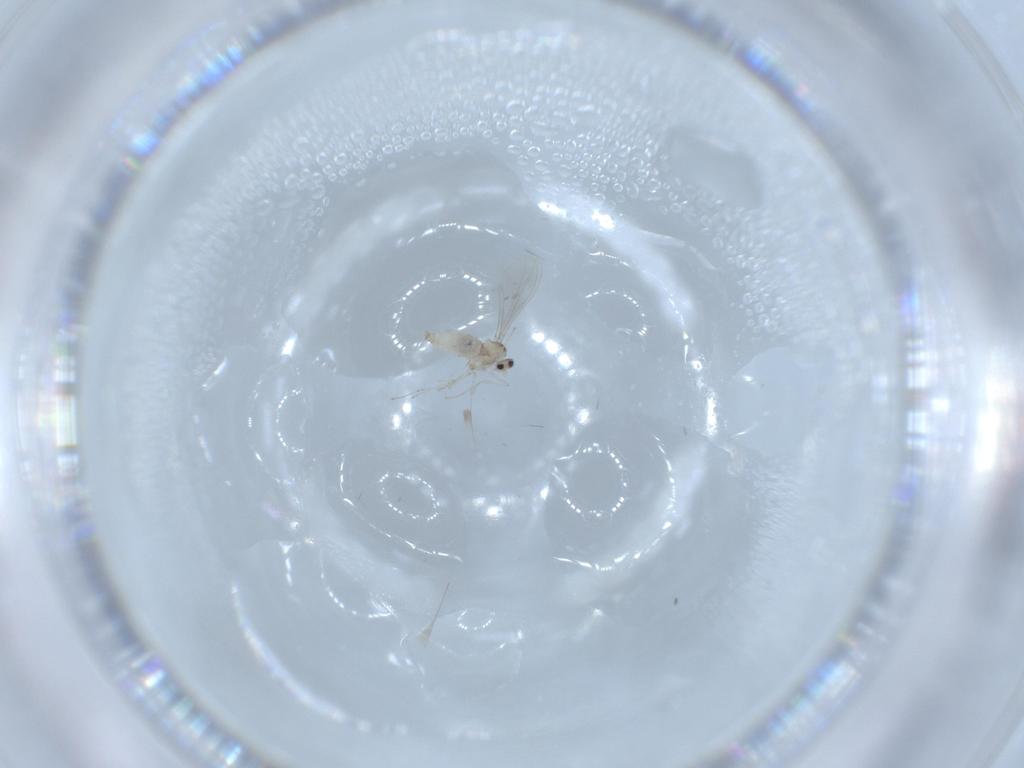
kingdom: Animalia
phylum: Arthropoda
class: Insecta
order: Diptera
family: Cecidomyiidae
